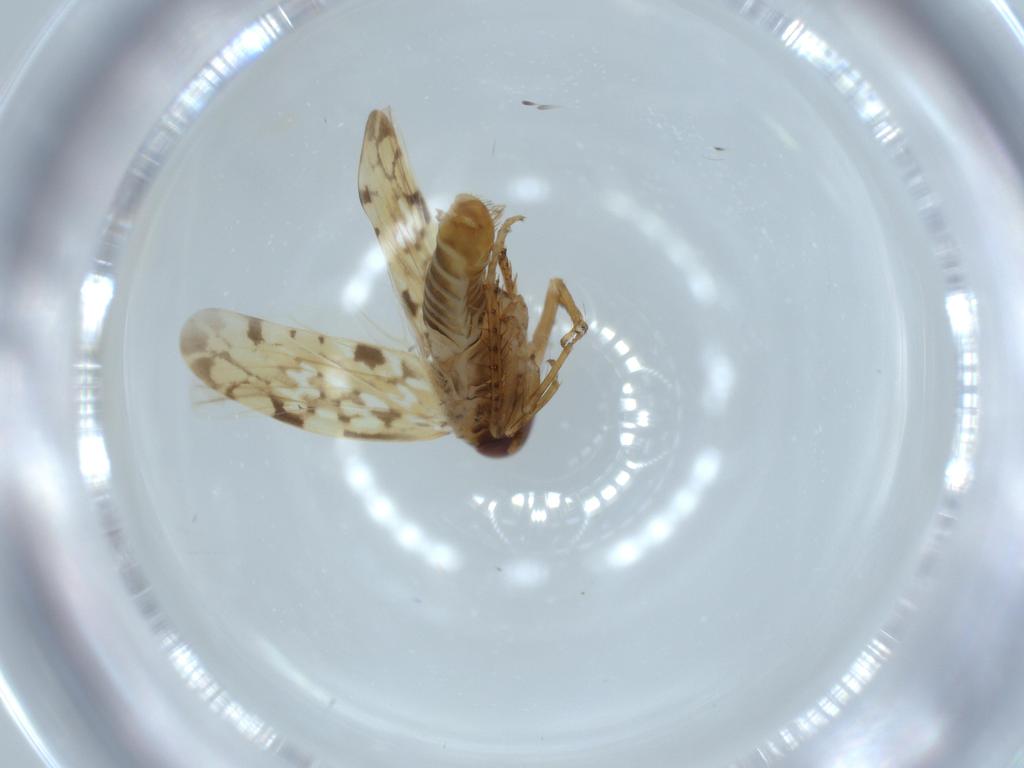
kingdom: Animalia
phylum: Arthropoda
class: Insecta
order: Hemiptera
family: Cicadellidae
